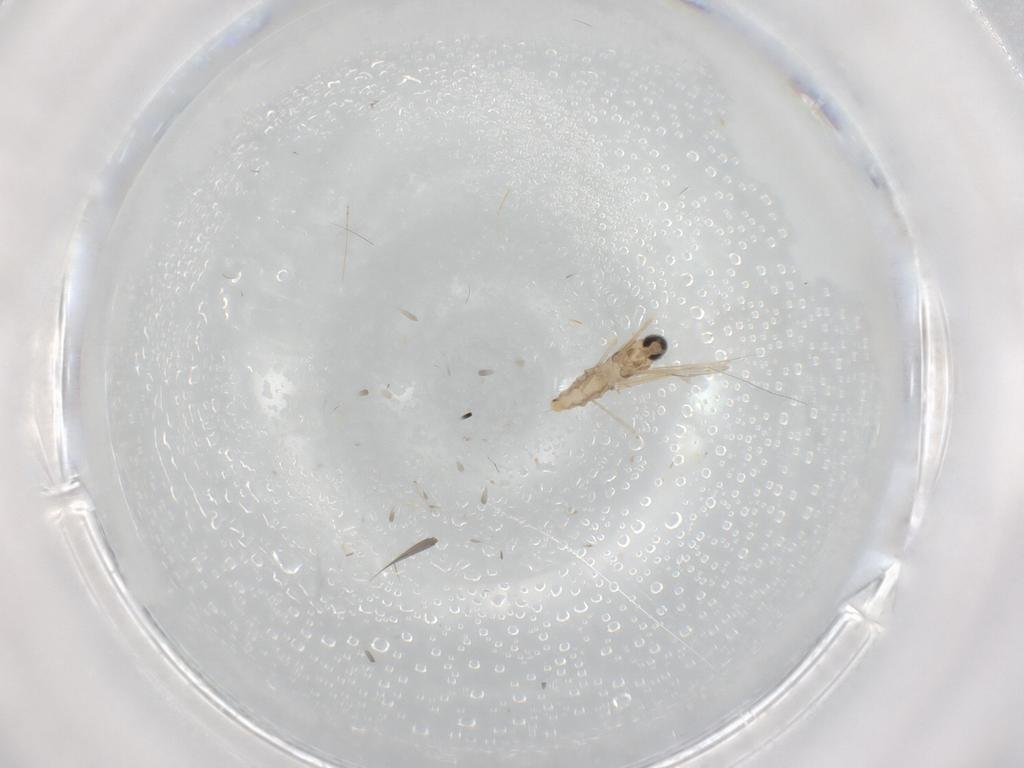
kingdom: Animalia
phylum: Arthropoda
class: Insecta
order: Diptera
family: Cecidomyiidae
